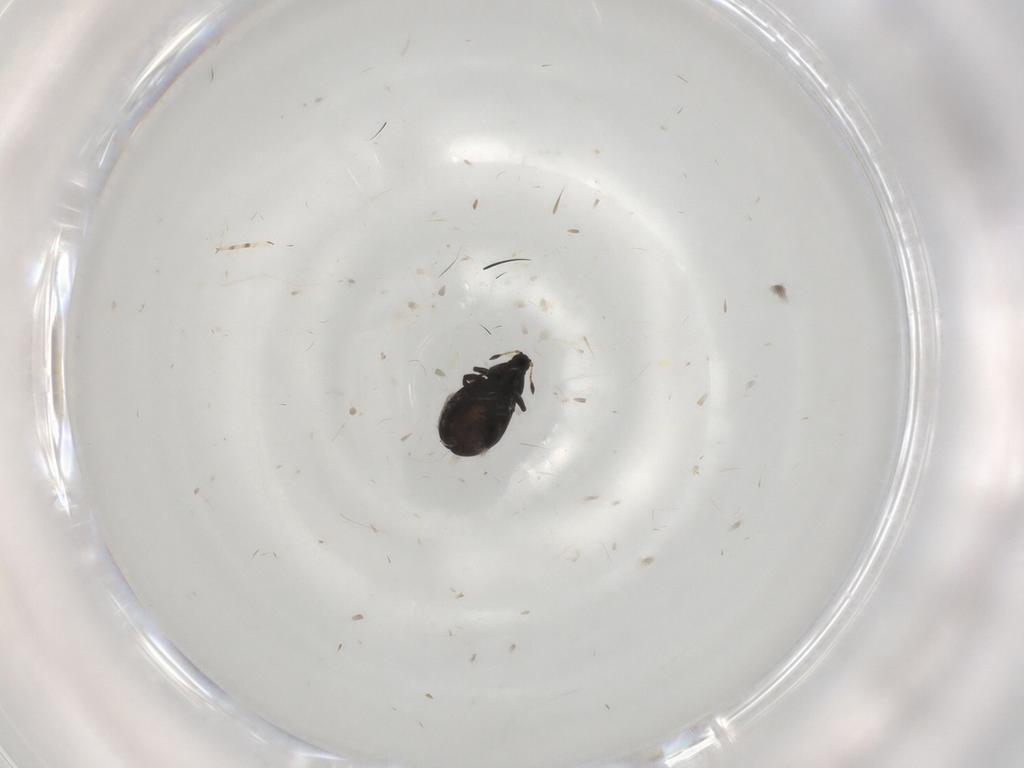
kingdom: Animalia
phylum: Arthropoda
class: Insecta
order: Coleoptera
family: Curculionidae
